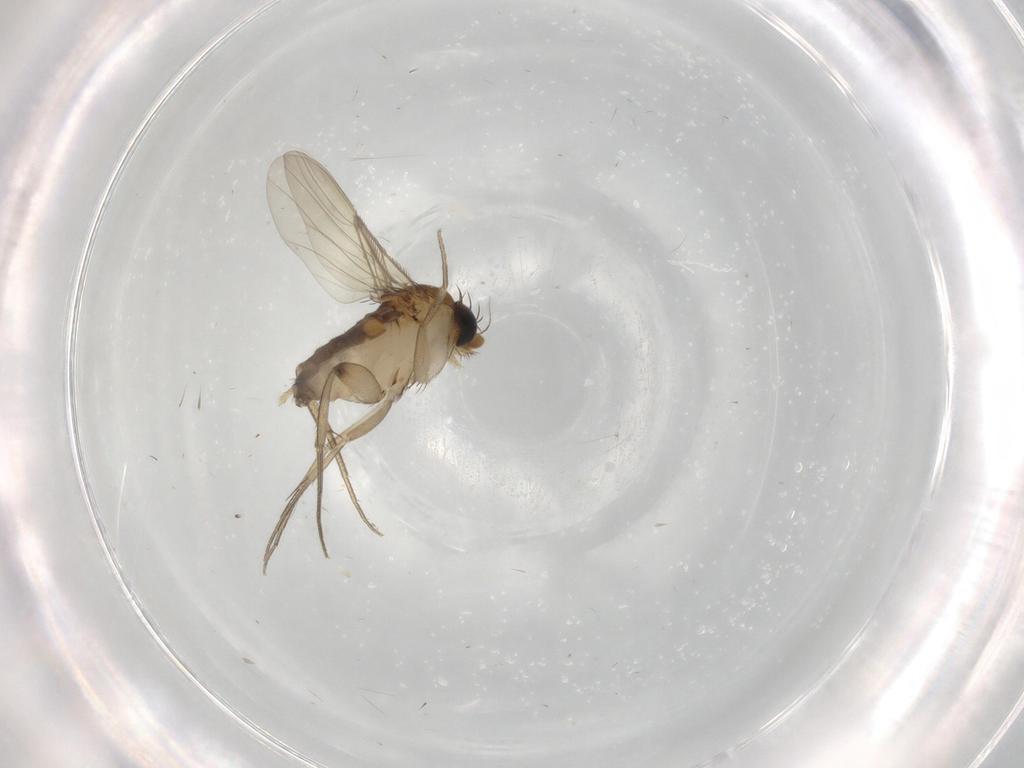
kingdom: Animalia
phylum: Arthropoda
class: Insecta
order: Diptera
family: Phoridae
